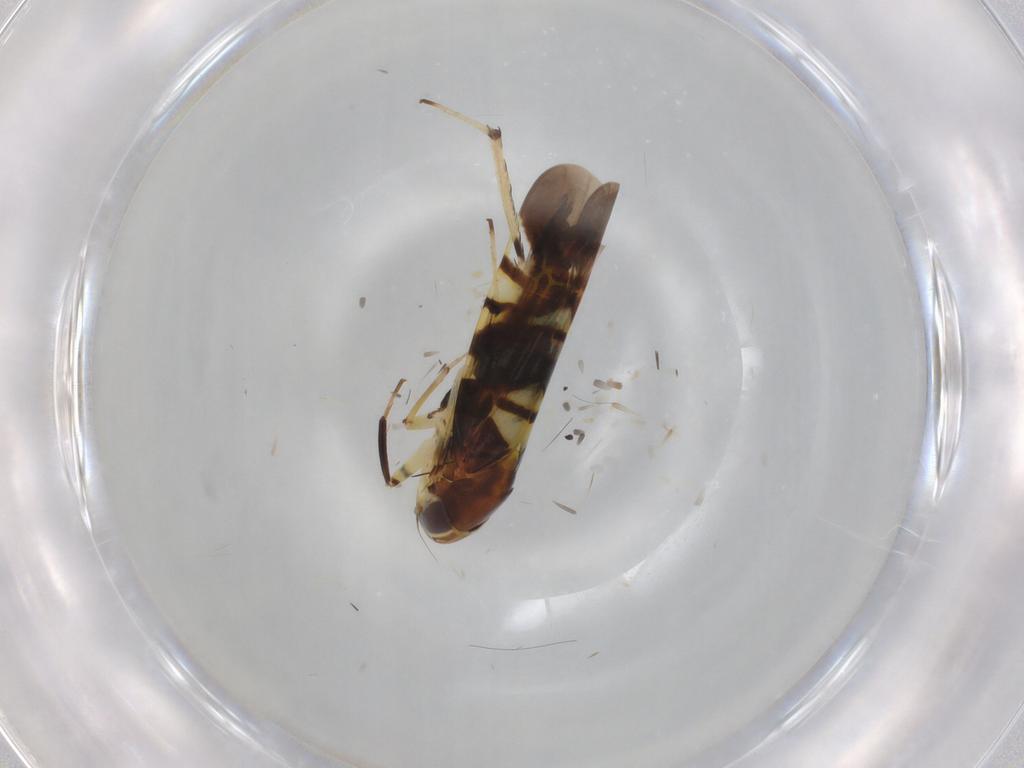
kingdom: Animalia
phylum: Arthropoda
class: Insecta
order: Hemiptera
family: Cicadellidae
